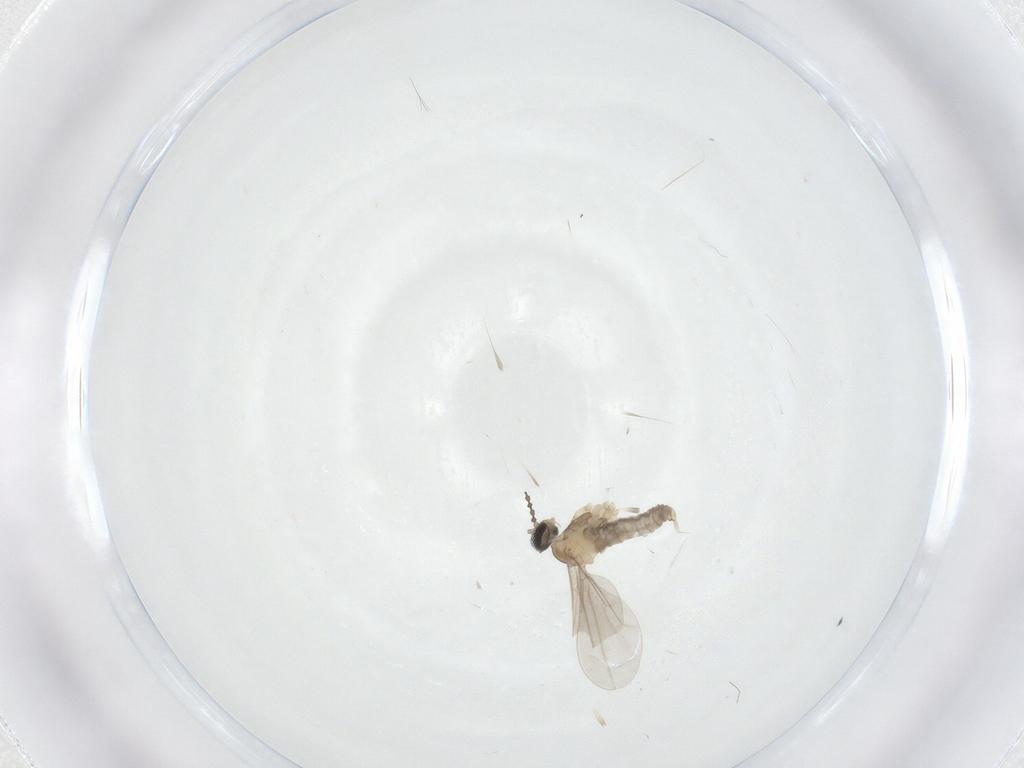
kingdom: Animalia
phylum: Arthropoda
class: Insecta
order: Diptera
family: Cecidomyiidae
